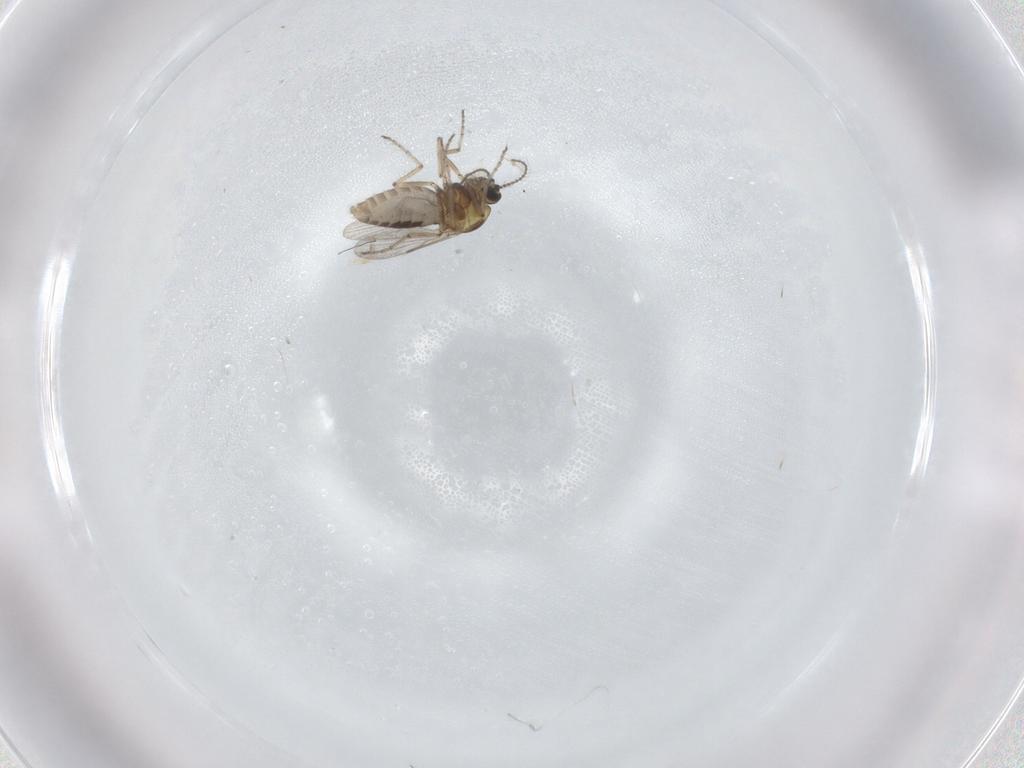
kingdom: Animalia
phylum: Arthropoda
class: Insecta
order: Diptera
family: Ceratopogonidae
